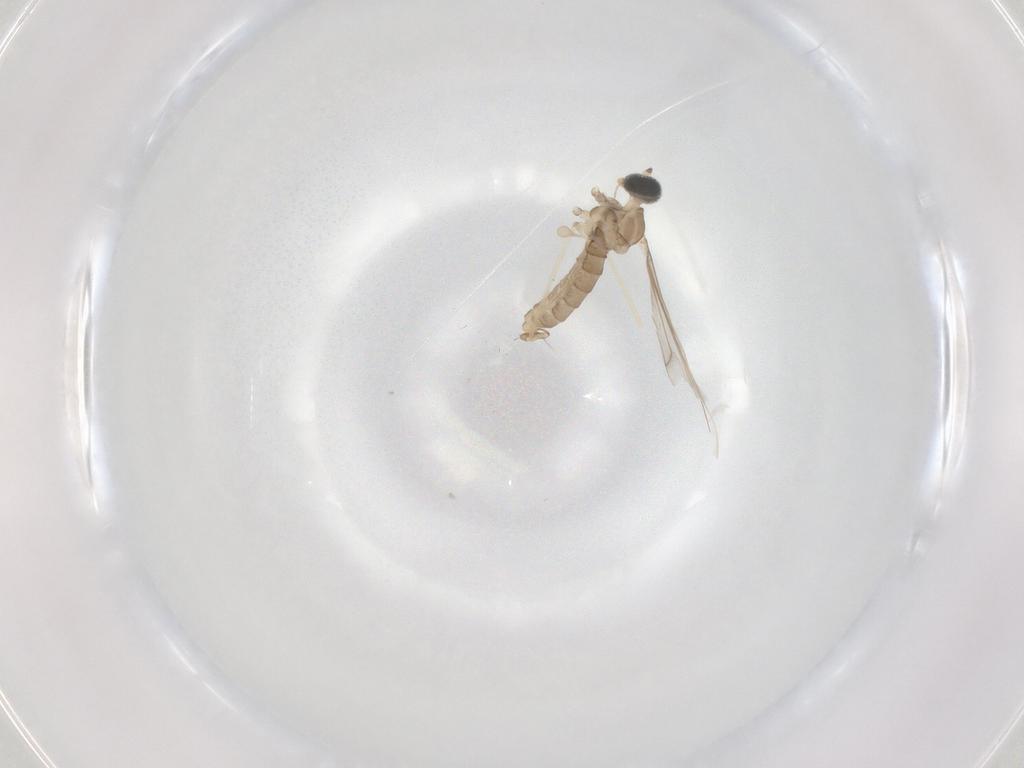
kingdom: Animalia
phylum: Arthropoda
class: Insecta
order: Diptera
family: Cecidomyiidae
